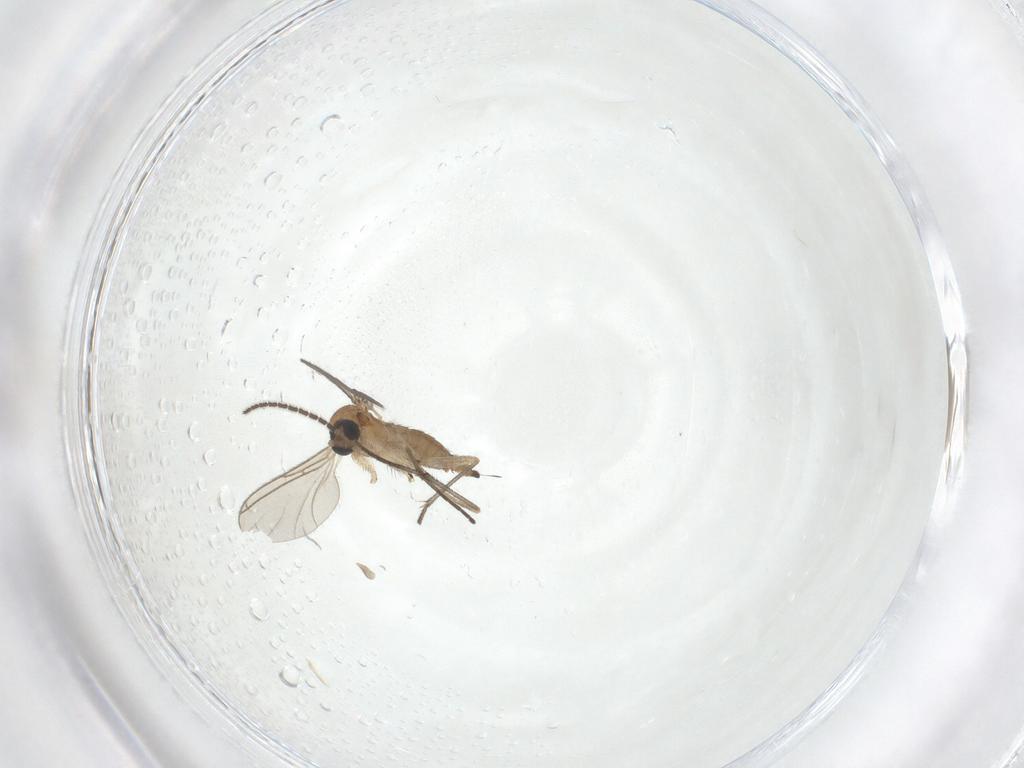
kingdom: Animalia
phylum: Arthropoda
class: Insecta
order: Diptera
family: Sciaridae
